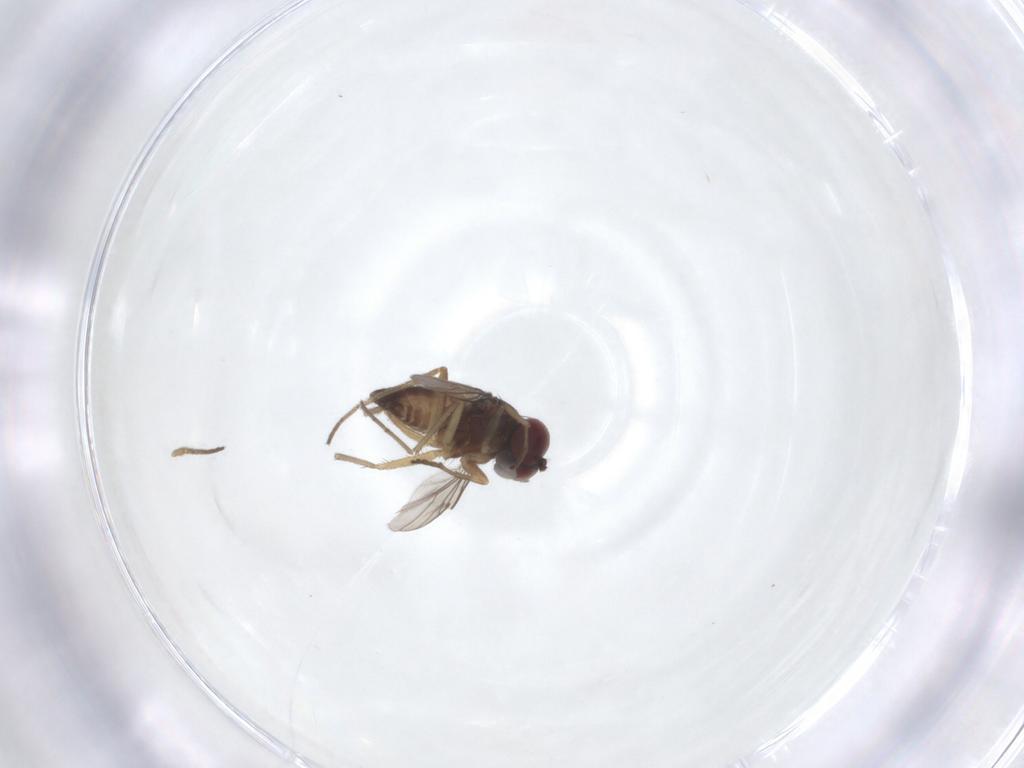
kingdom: Animalia
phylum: Arthropoda
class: Insecta
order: Diptera
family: Dolichopodidae
